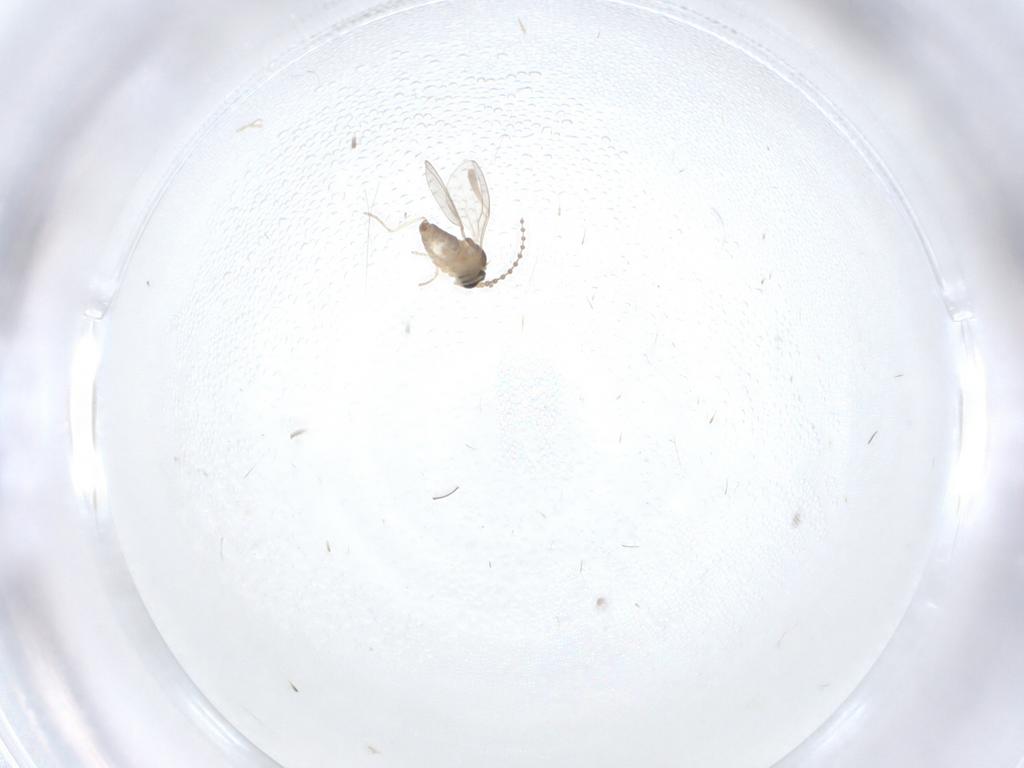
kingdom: Animalia
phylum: Arthropoda
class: Insecta
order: Diptera
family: Cecidomyiidae
